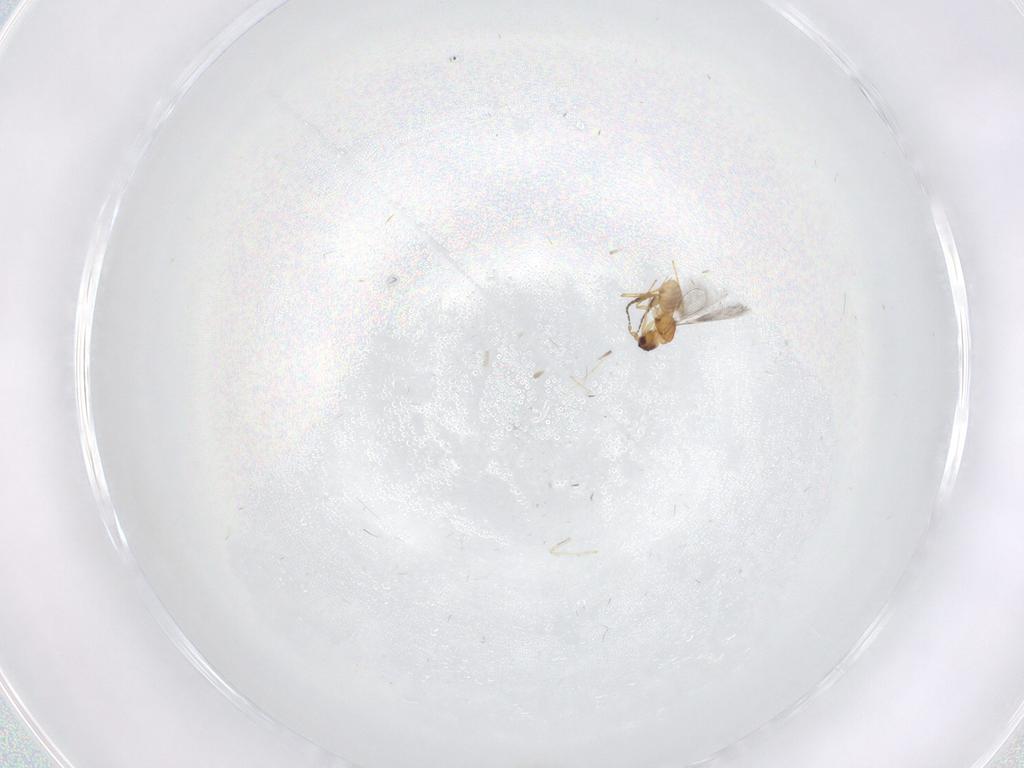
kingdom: Animalia
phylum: Arthropoda
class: Insecta
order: Hymenoptera
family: Mymaridae
